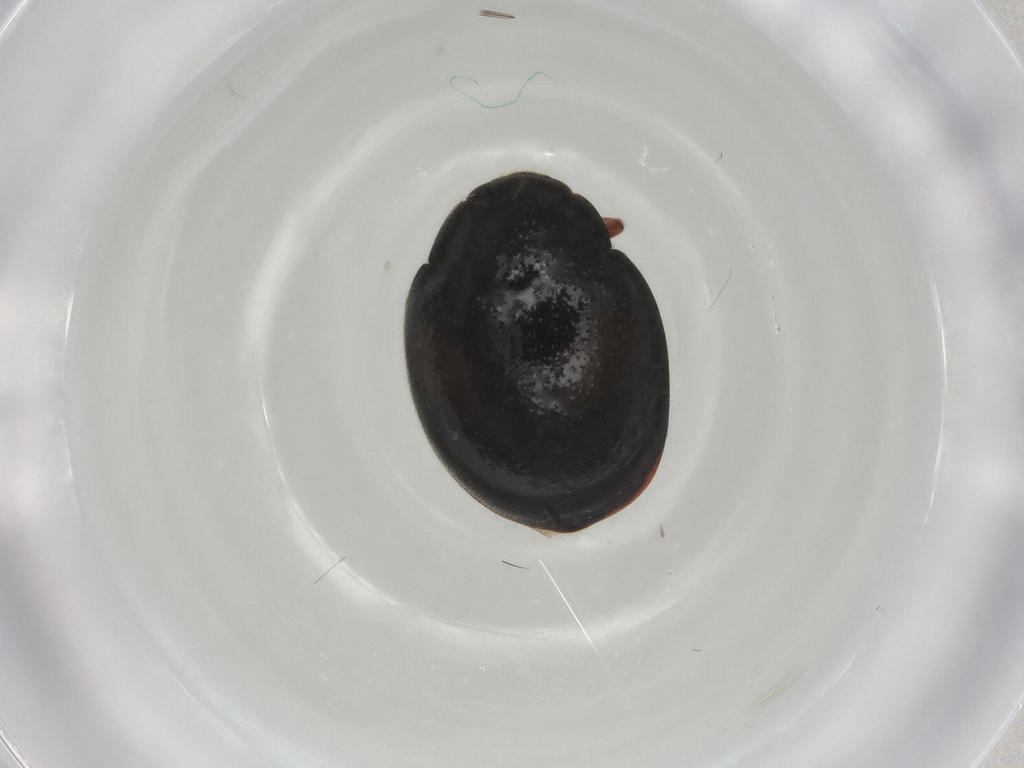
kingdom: Animalia
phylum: Arthropoda
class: Insecta
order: Coleoptera
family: Coccinellidae
